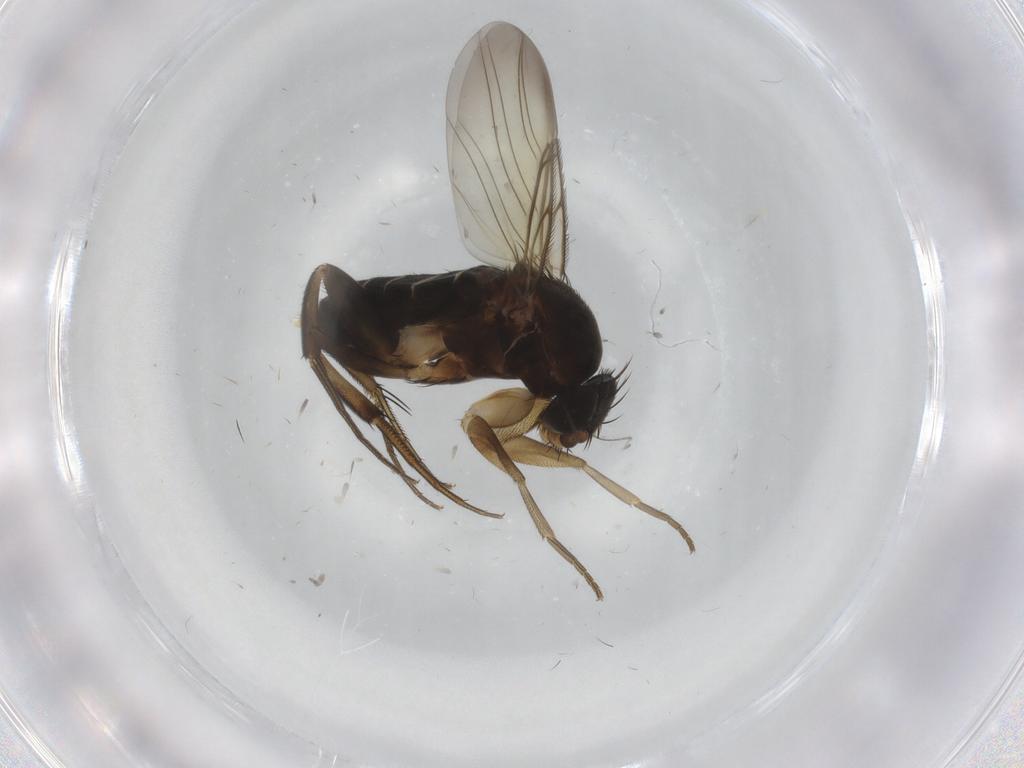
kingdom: Animalia
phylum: Arthropoda
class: Insecta
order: Diptera
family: Phoridae
